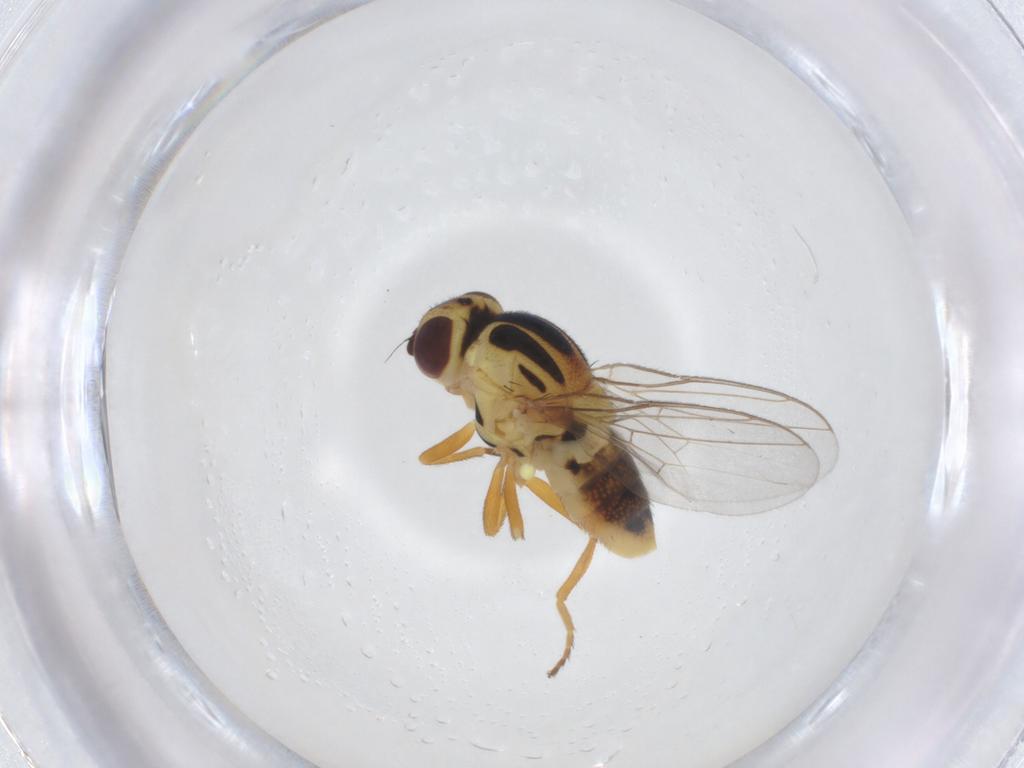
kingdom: Animalia
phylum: Arthropoda
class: Insecta
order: Diptera
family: Chloropidae
